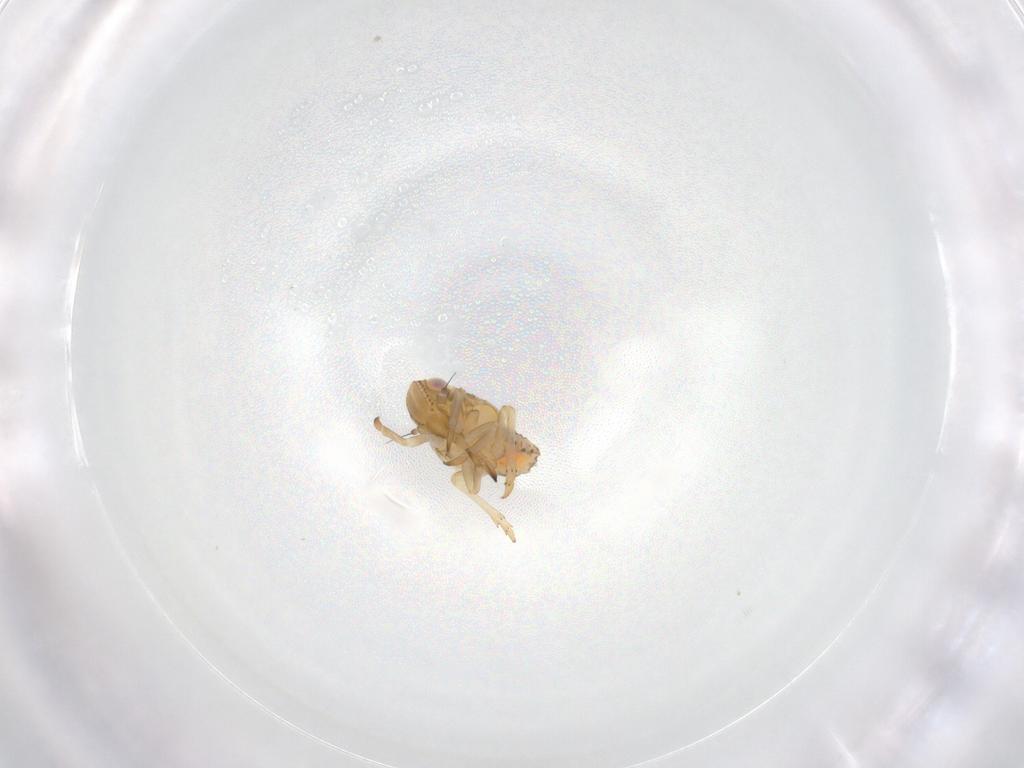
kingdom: Animalia
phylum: Arthropoda
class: Insecta
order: Hemiptera
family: Tropiduchidae
